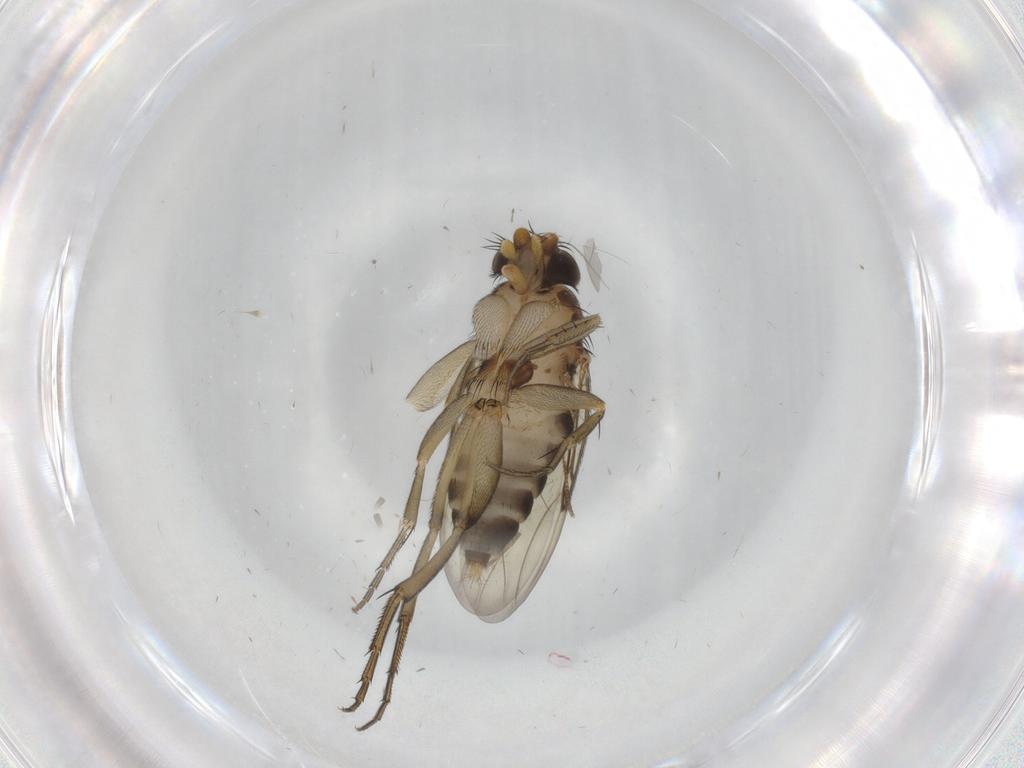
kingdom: Animalia
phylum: Arthropoda
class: Insecta
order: Diptera
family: Phoridae
